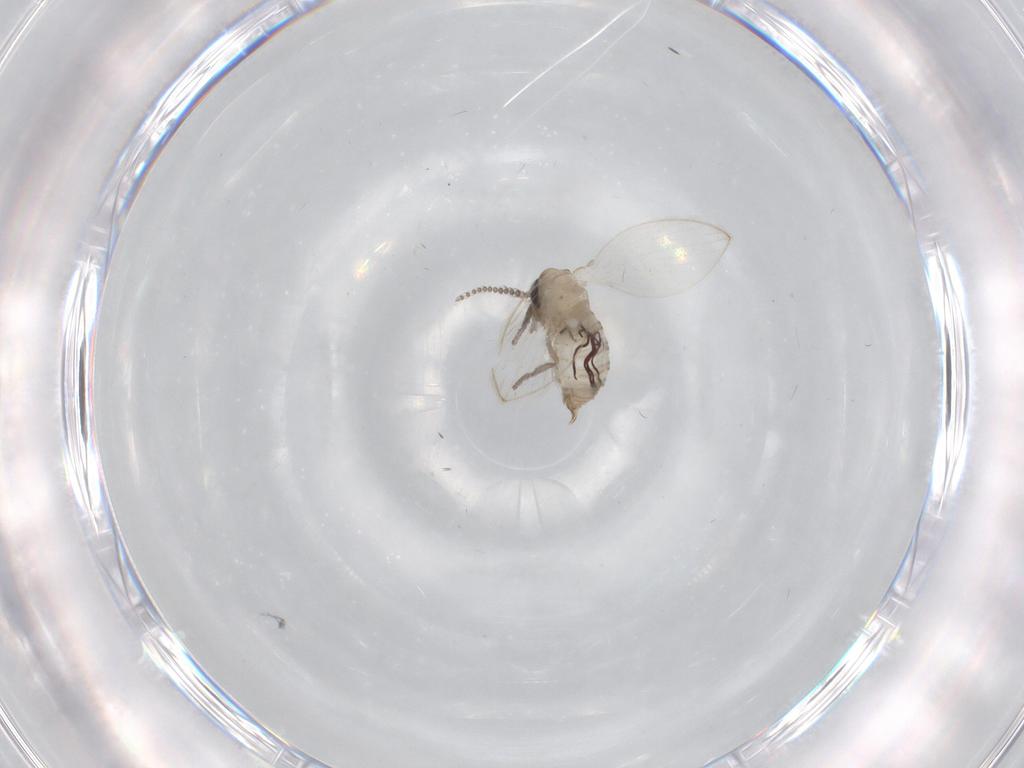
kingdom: Animalia
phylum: Arthropoda
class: Insecta
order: Diptera
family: Psychodidae
